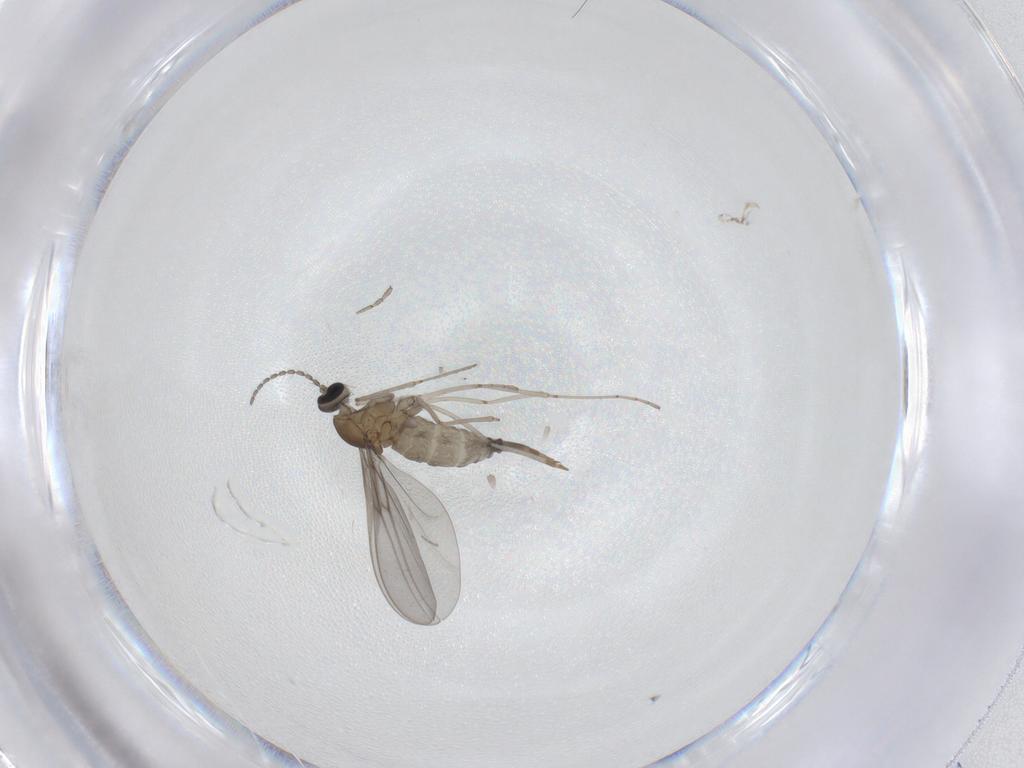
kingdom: Animalia
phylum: Arthropoda
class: Insecta
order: Diptera
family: Cecidomyiidae
